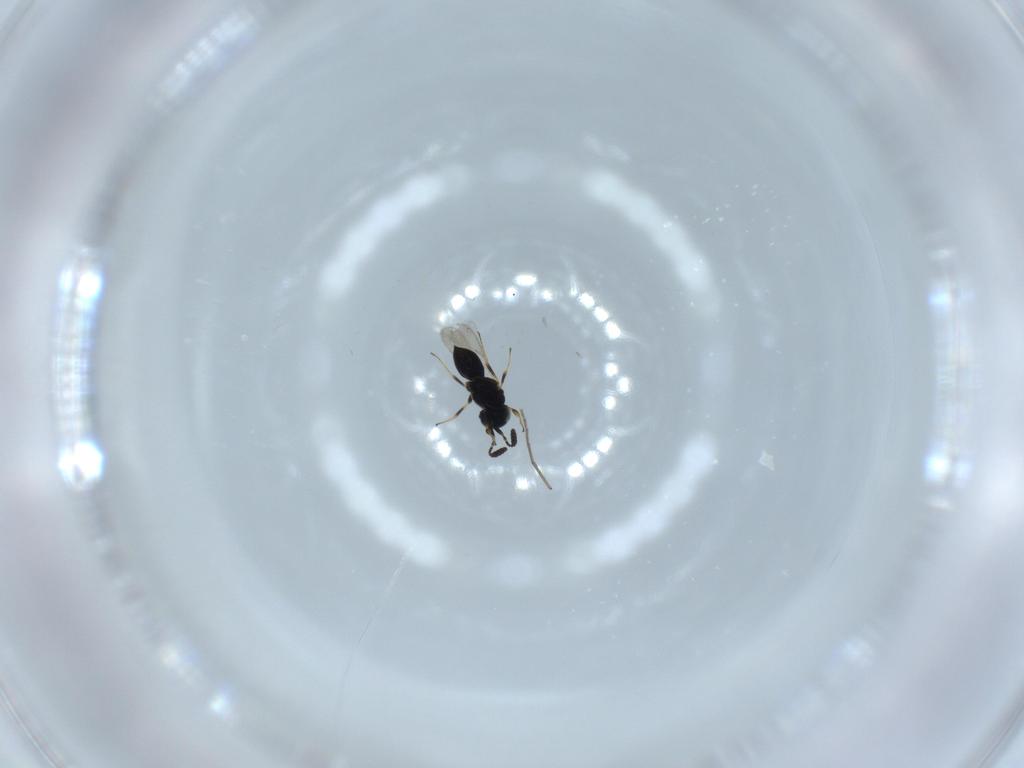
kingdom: Animalia
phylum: Arthropoda
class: Insecta
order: Hymenoptera
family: Scelionidae
